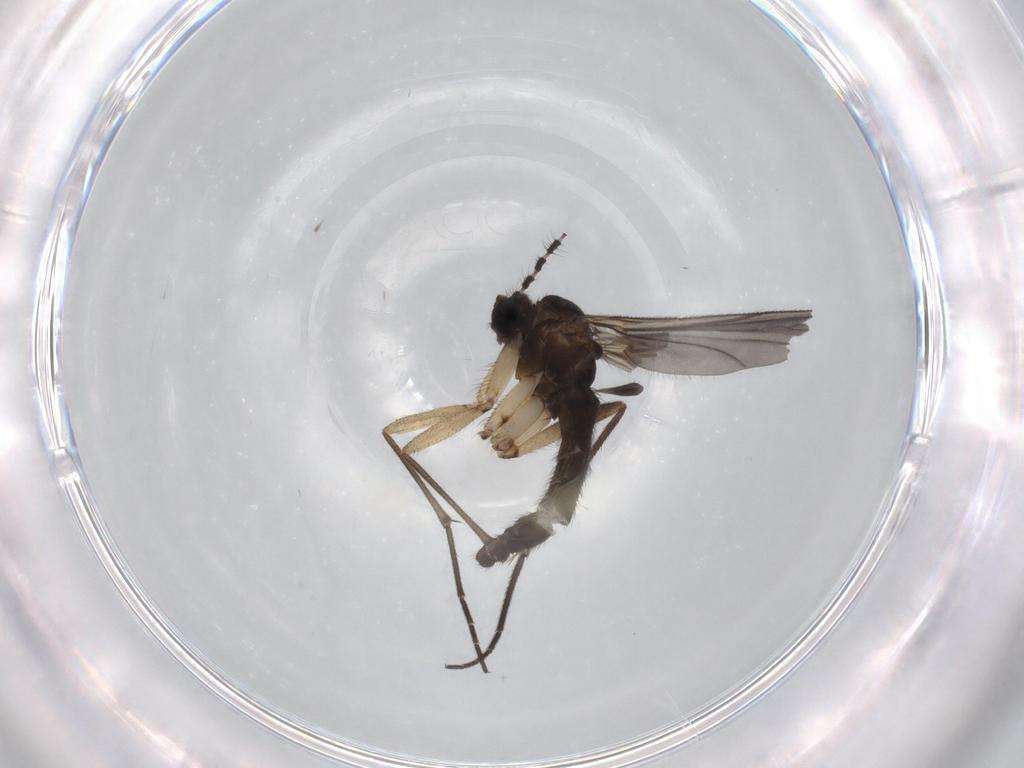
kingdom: Animalia
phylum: Arthropoda
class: Insecta
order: Diptera
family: Sciaridae
